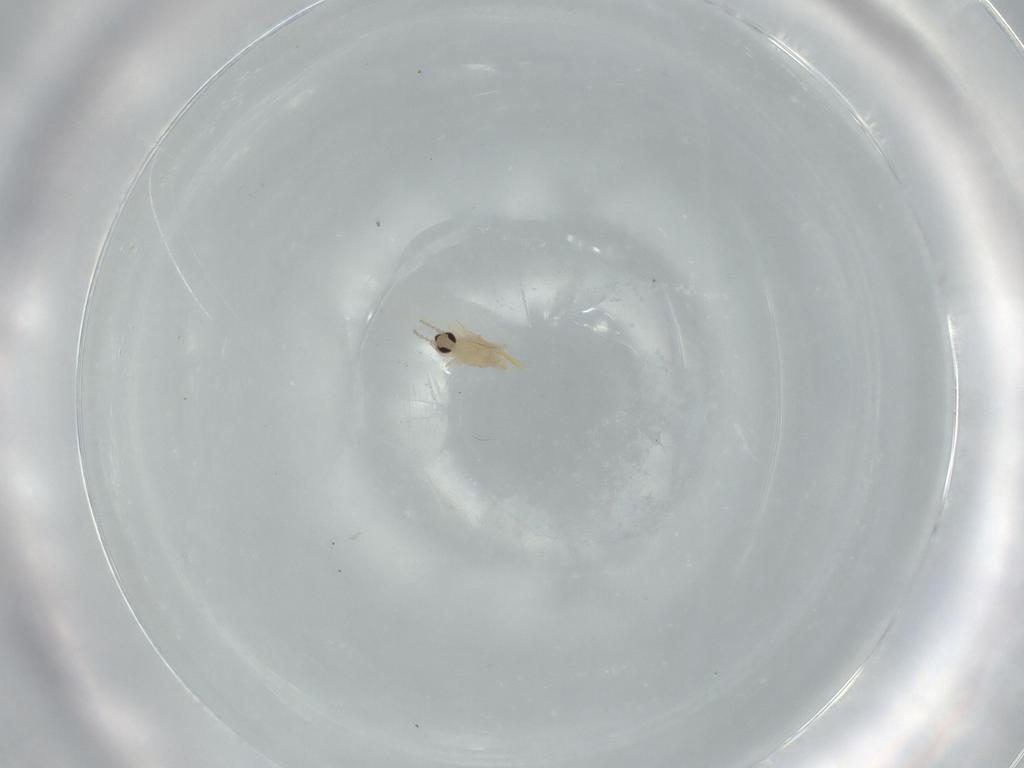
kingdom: Animalia
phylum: Arthropoda
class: Insecta
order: Diptera
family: Cecidomyiidae
